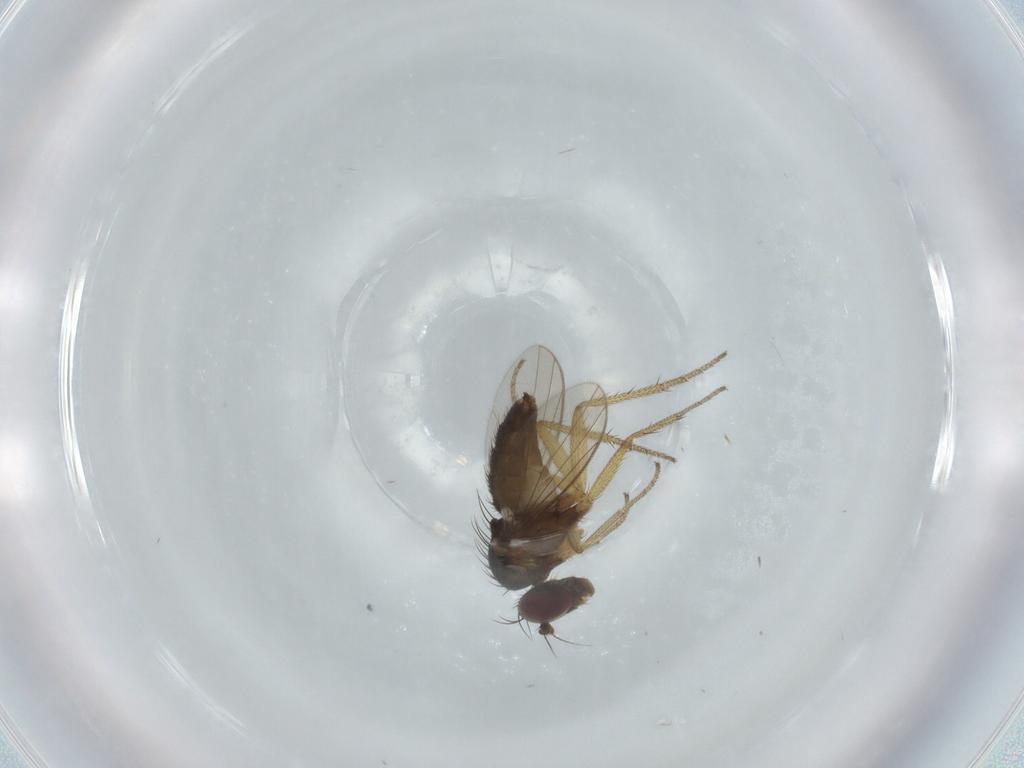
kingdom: Animalia
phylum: Arthropoda
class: Insecta
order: Diptera
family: Dolichopodidae
